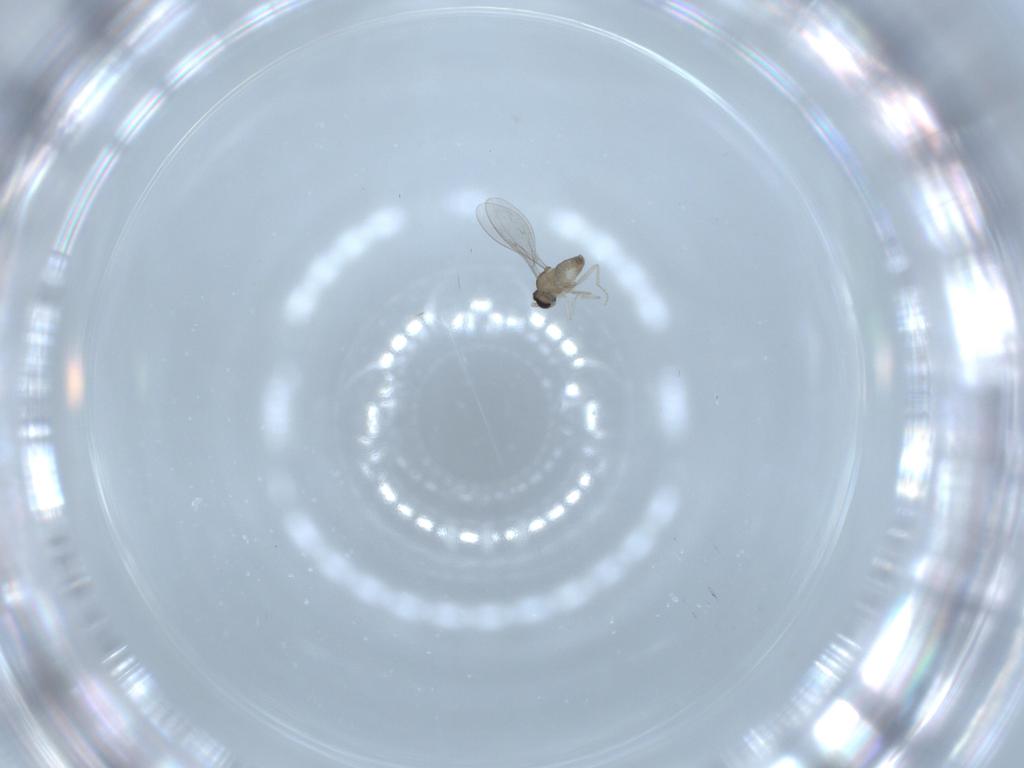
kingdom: Animalia
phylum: Arthropoda
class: Insecta
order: Diptera
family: Cecidomyiidae
